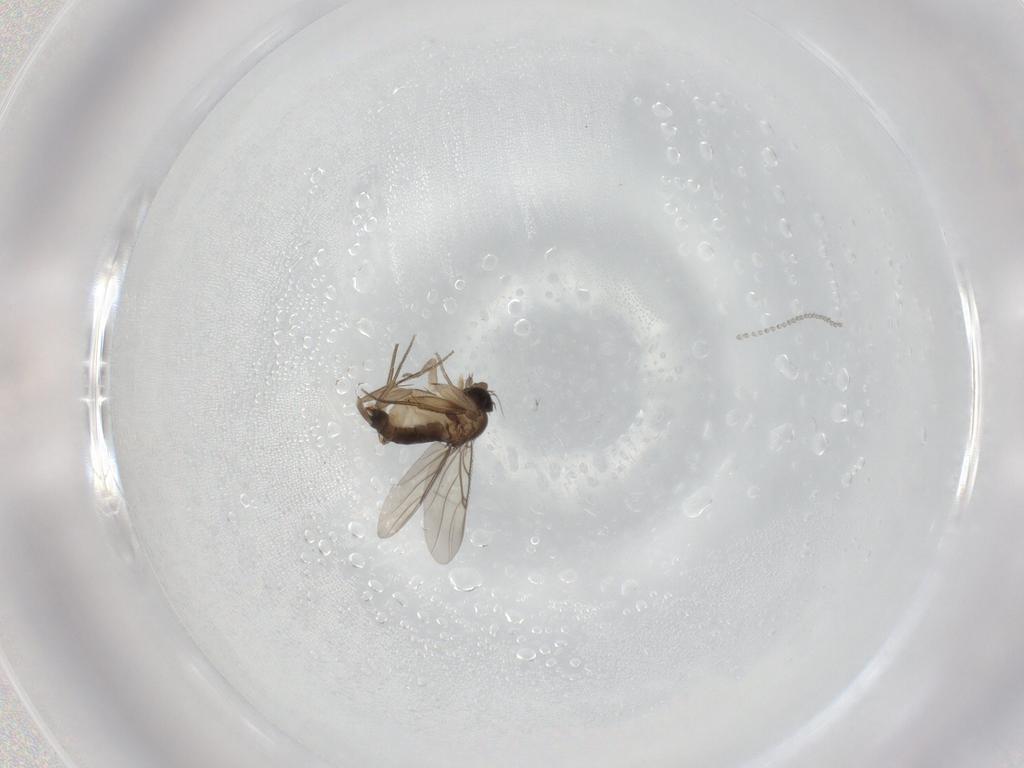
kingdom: Animalia
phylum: Arthropoda
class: Insecta
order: Diptera
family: Phoridae
